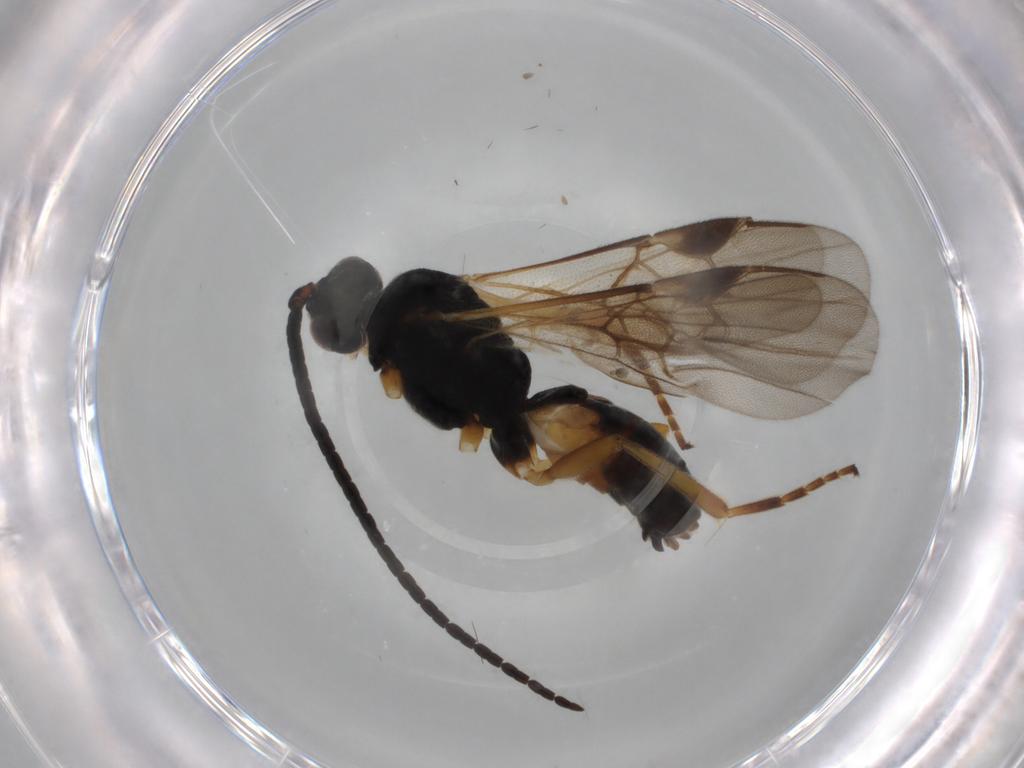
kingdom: Animalia
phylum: Arthropoda
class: Insecta
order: Hymenoptera
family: Braconidae
